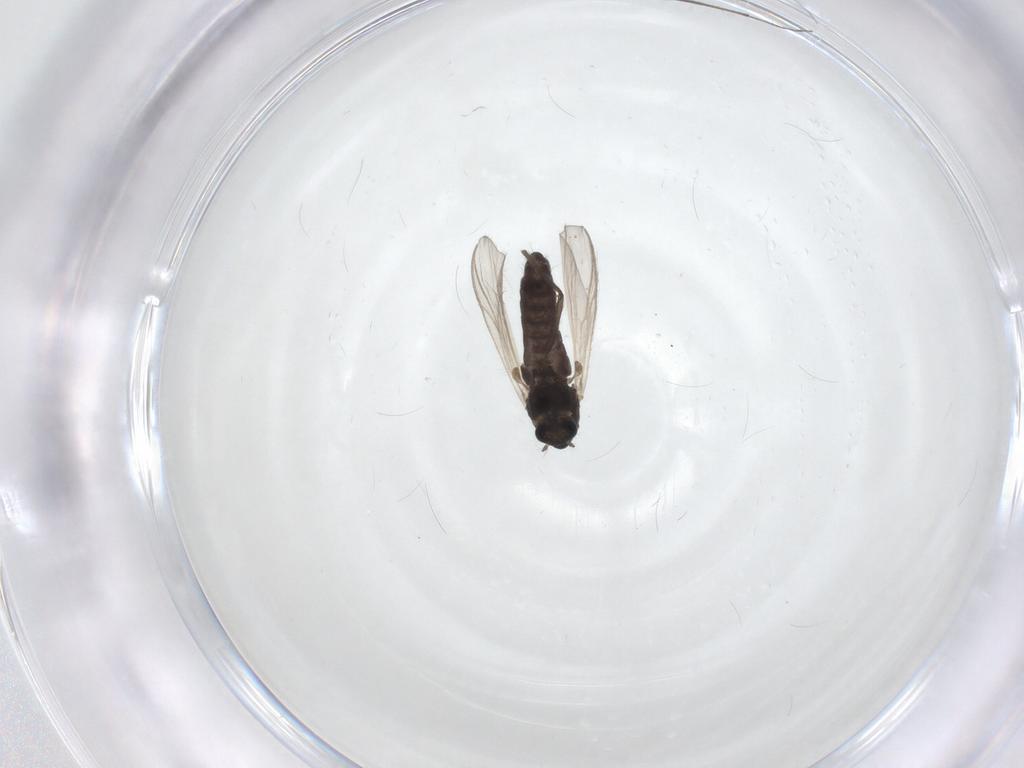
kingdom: Animalia
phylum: Arthropoda
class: Insecta
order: Diptera
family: Chironomidae
